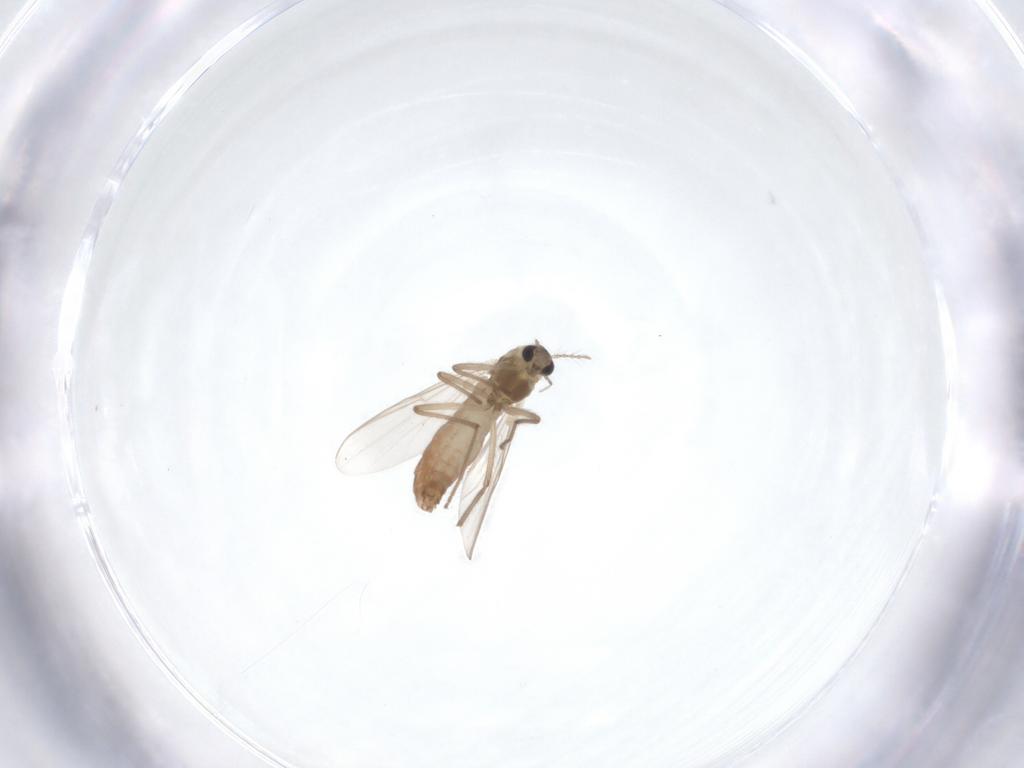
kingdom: Animalia
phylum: Arthropoda
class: Insecta
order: Diptera
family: Chironomidae
